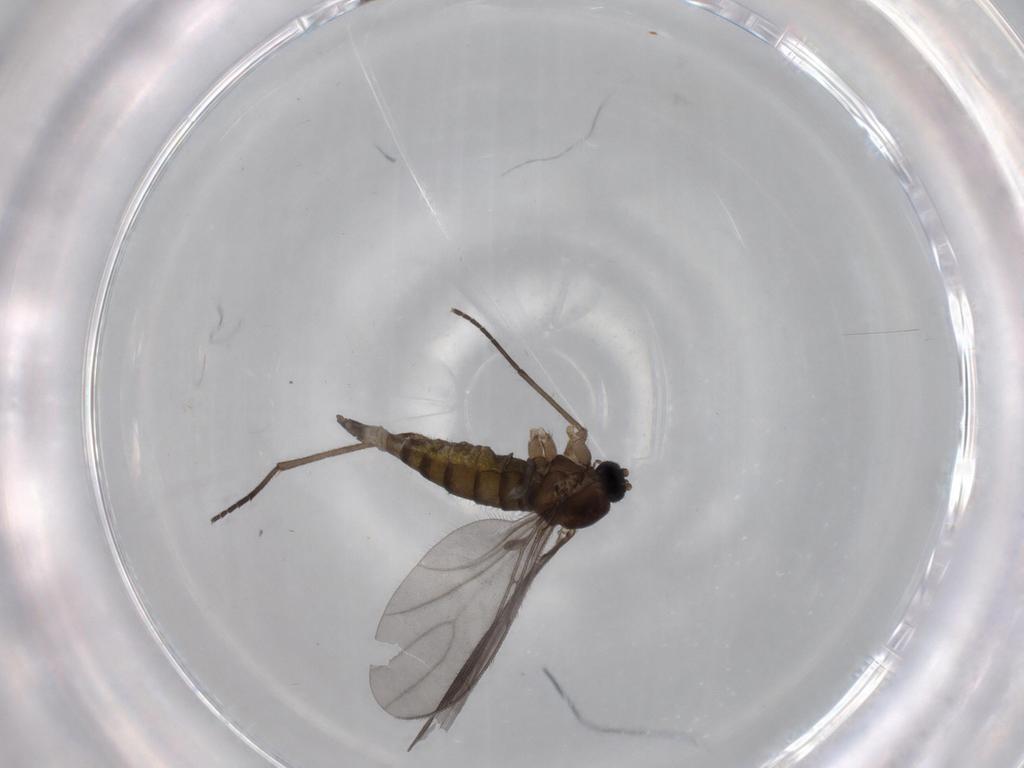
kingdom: Animalia
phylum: Arthropoda
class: Insecta
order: Diptera
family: Sciaridae
